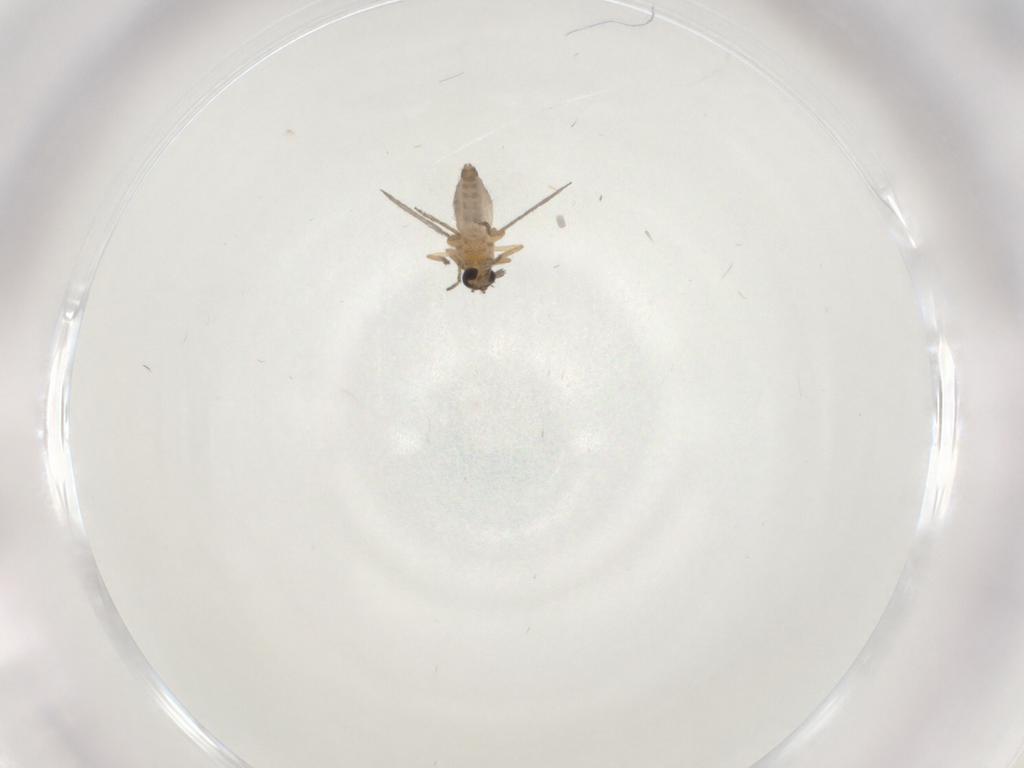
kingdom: Animalia
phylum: Arthropoda
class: Insecta
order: Diptera
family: Ceratopogonidae
